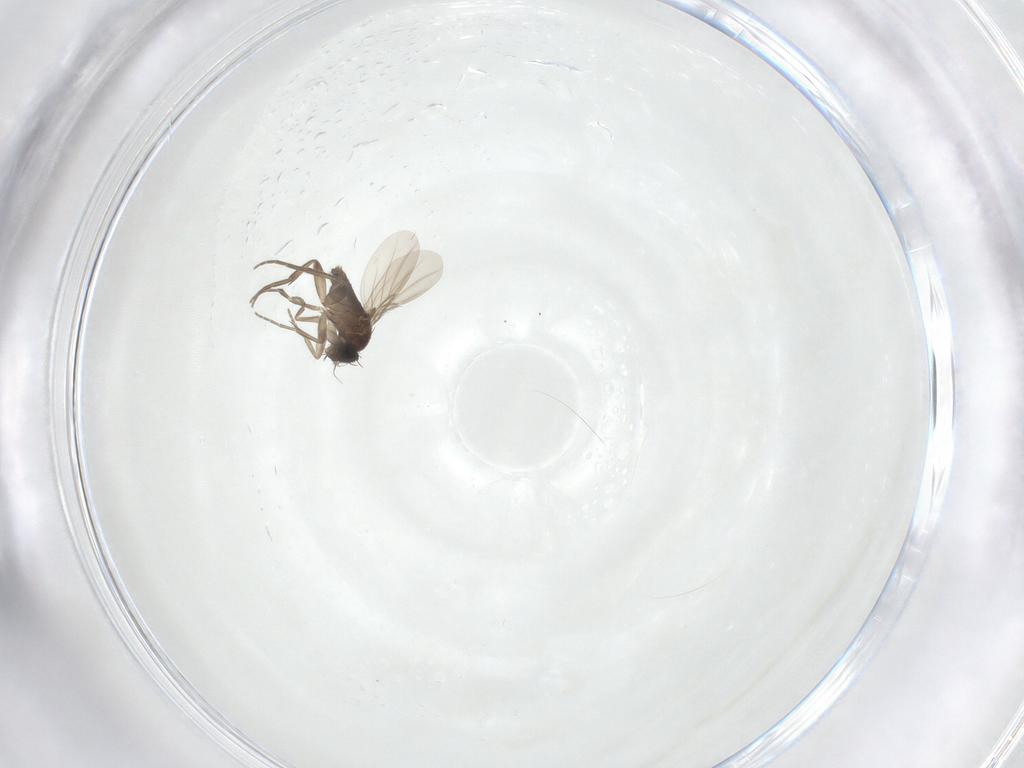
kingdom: Animalia
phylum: Arthropoda
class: Insecta
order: Diptera
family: Phoridae
